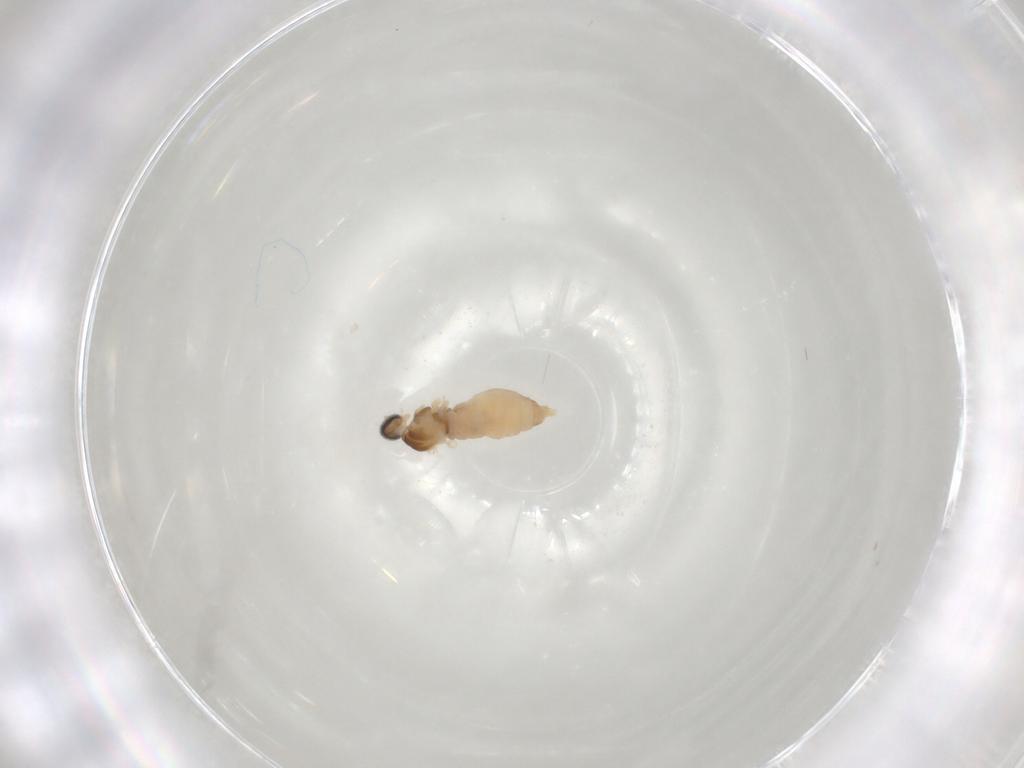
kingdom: Animalia
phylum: Arthropoda
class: Insecta
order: Diptera
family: Cecidomyiidae
